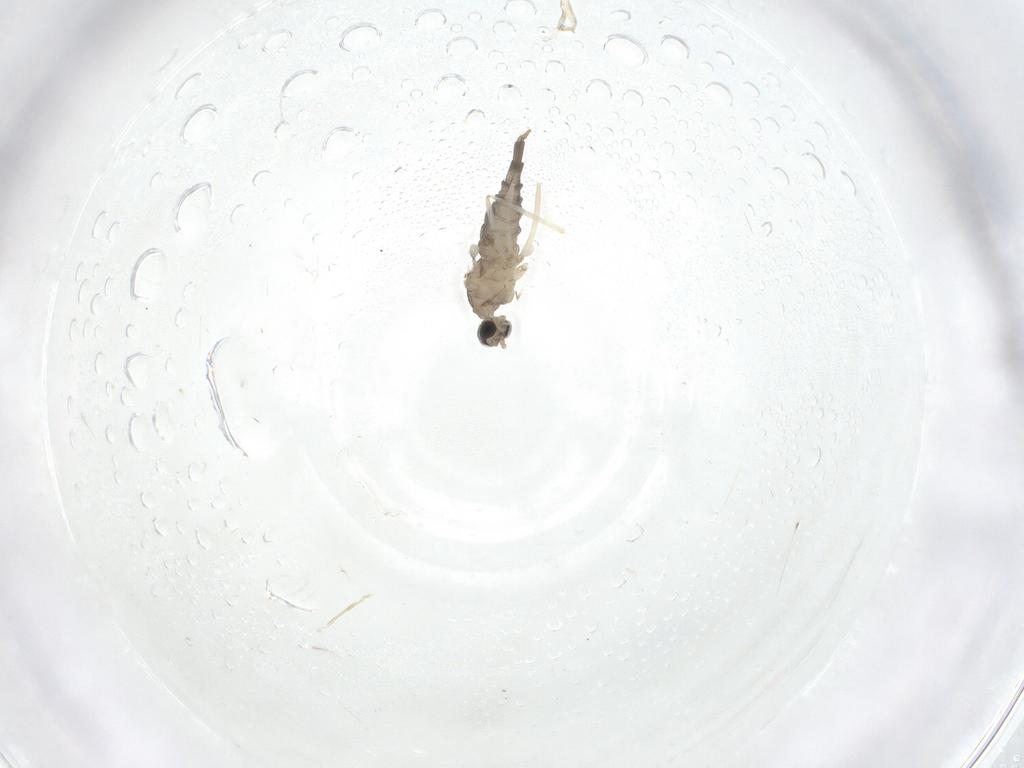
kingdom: Animalia
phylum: Arthropoda
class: Insecta
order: Diptera
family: Cecidomyiidae
